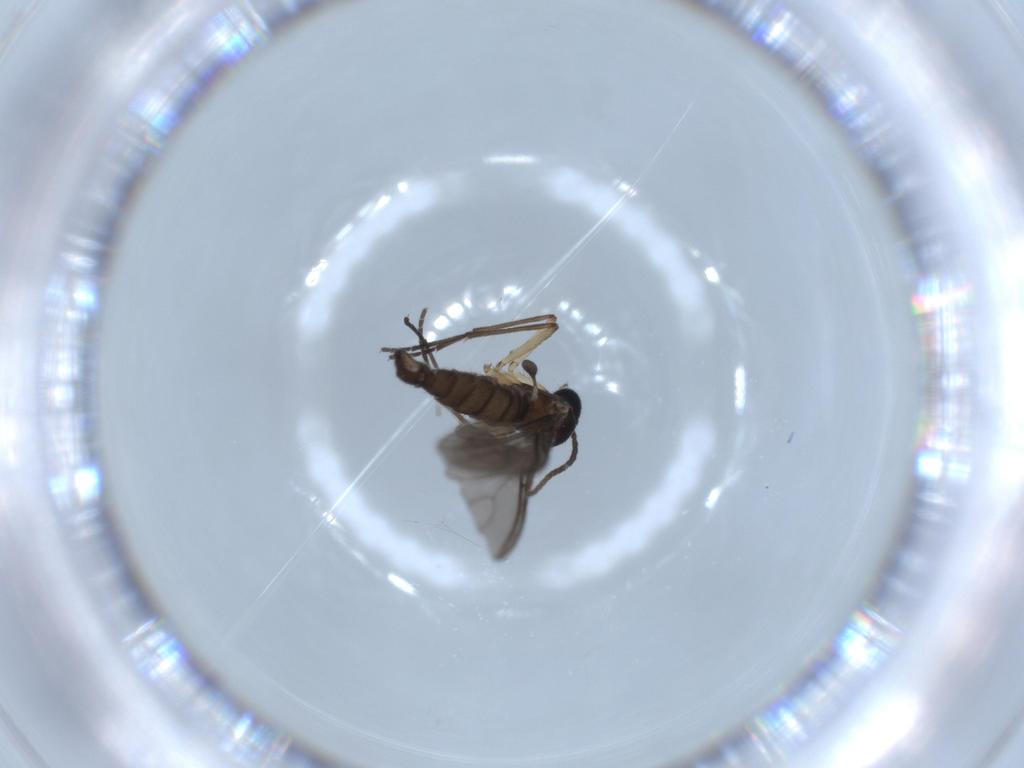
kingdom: Animalia
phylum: Arthropoda
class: Insecta
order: Diptera
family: Sciaridae
